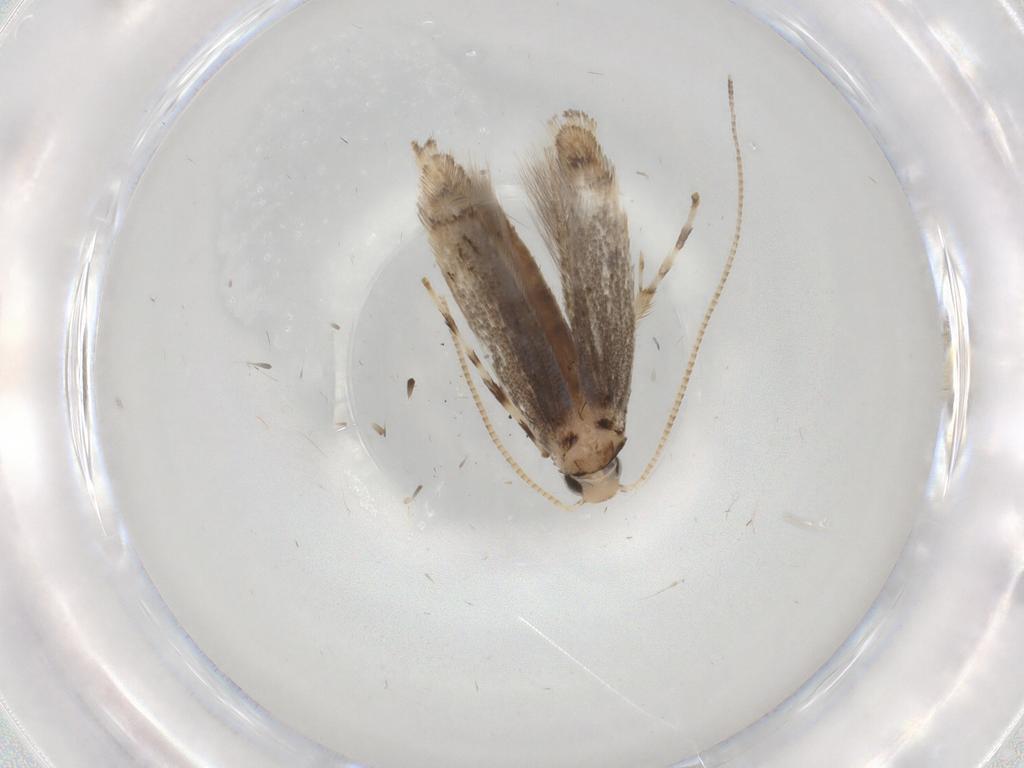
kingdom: Animalia
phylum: Arthropoda
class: Insecta
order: Lepidoptera
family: Gracillariidae
